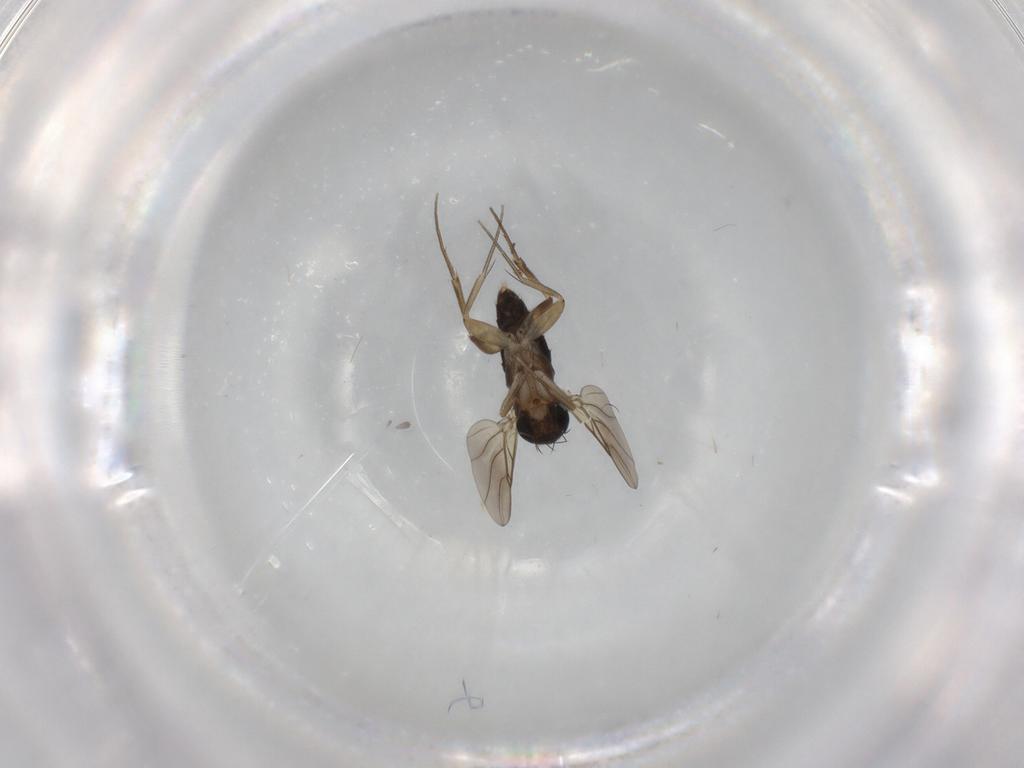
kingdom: Animalia
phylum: Arthropoda
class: Insecta
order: Diptera
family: Phoridae
